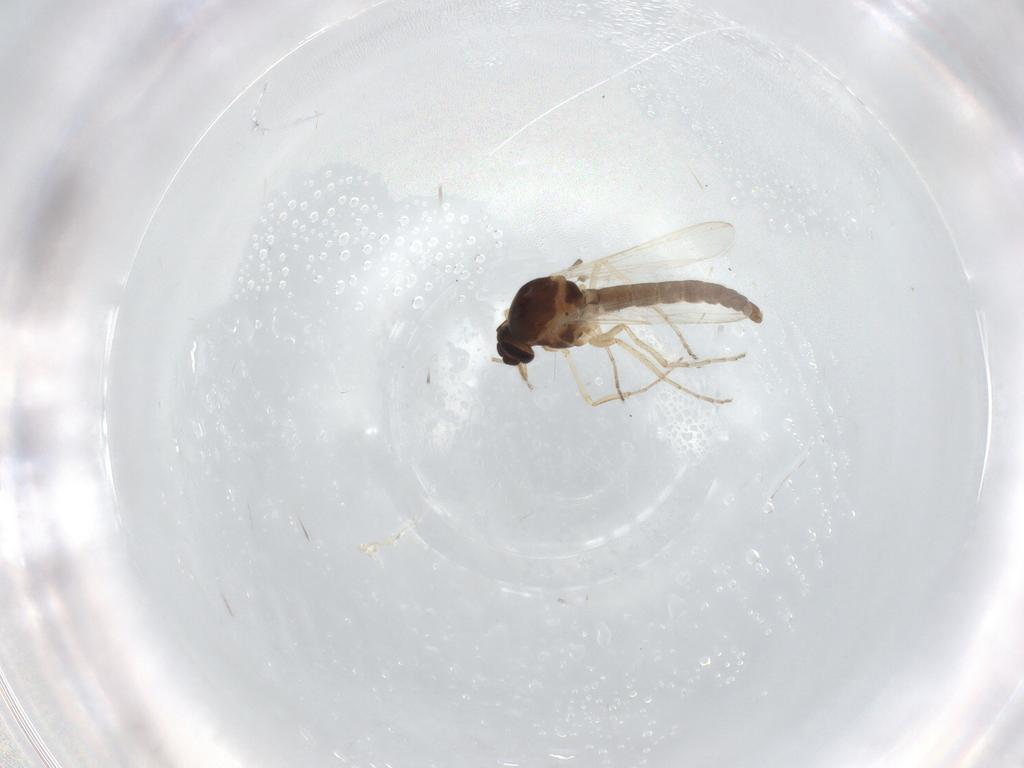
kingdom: Animalia
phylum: Arthropoda
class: Insecta
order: Diptera
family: Chironomidae
